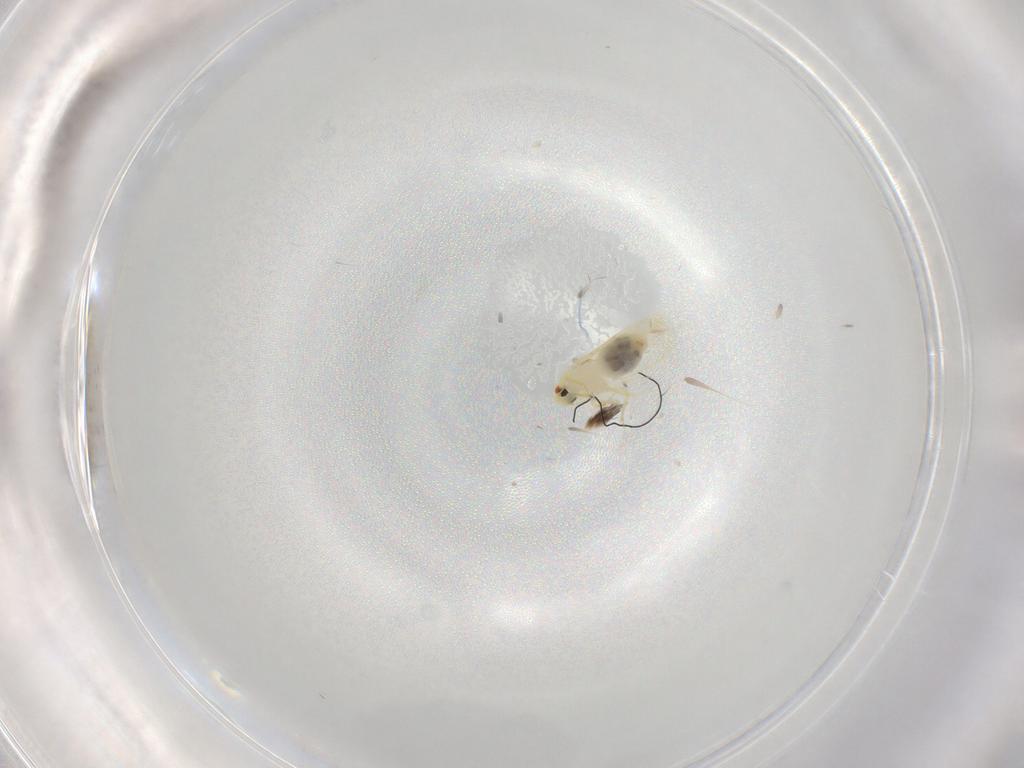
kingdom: Animalia
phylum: Arthropoda
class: Insecta
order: Hemiptera
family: Aleyrodidae
